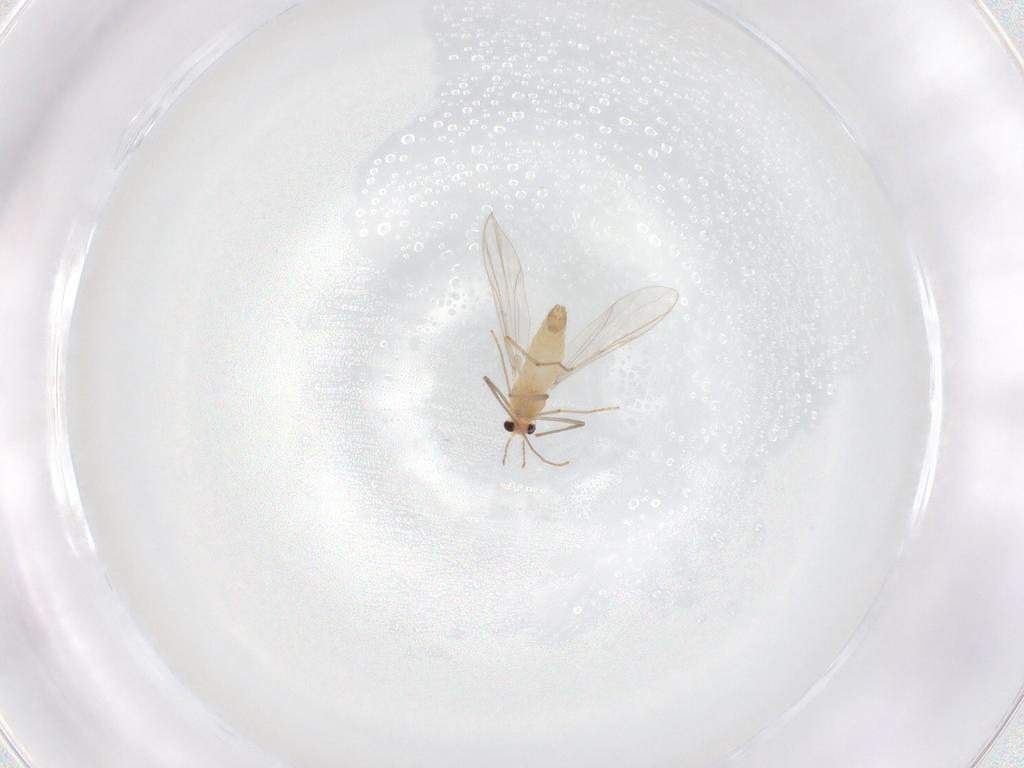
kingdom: Animalia
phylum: Arthropoda
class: Insecta
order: Diptera
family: Chironomidae
